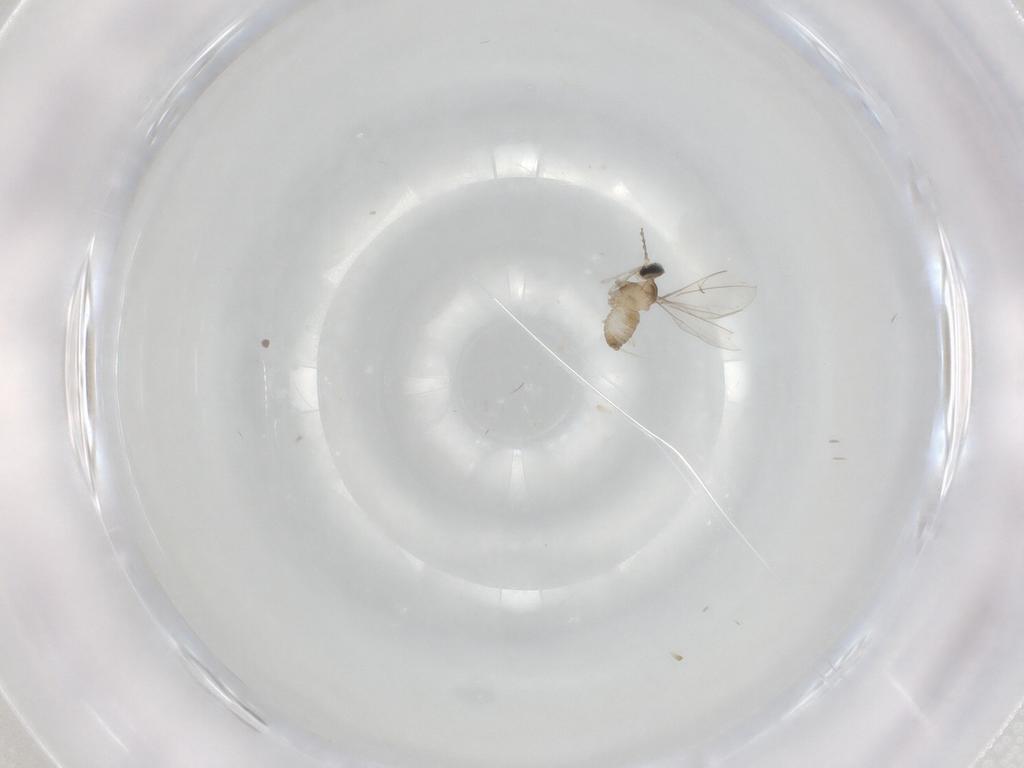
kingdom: Animalia
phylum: Arthropoda
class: Insecta
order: Diptera
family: Cecidomyiidae
